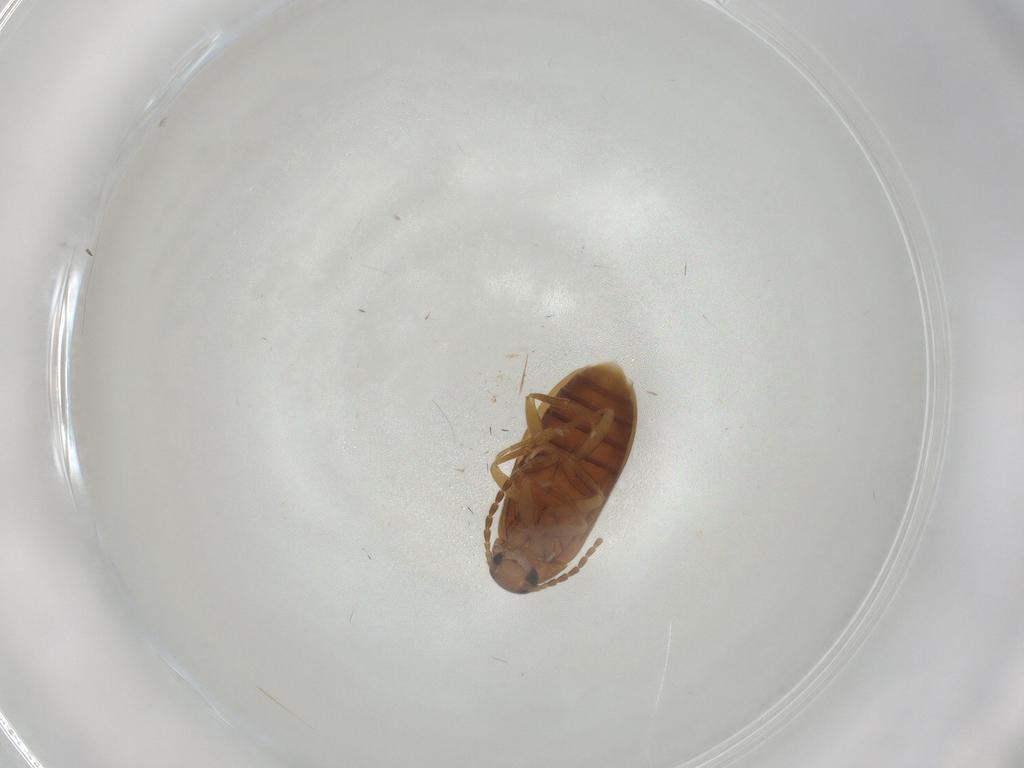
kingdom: Animalia
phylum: Arthropoda
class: Insecta
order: Coleoptera
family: Scraptiidae
